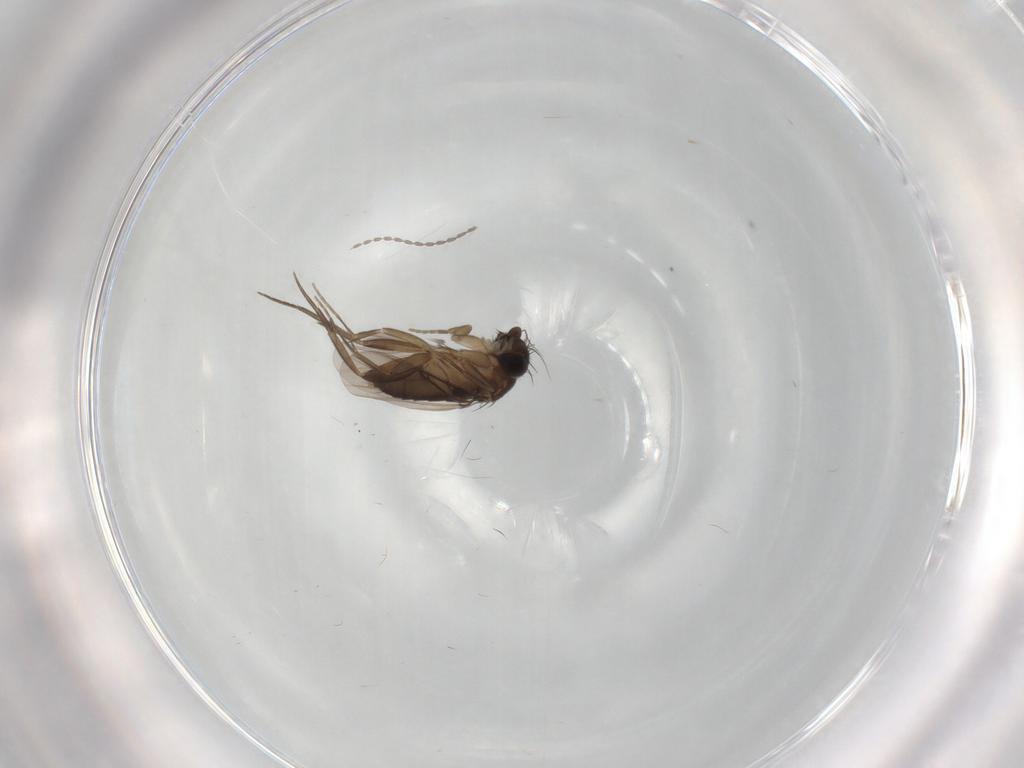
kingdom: Animalia
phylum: Arthropoda
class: Insecta
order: Diptera
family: Phoridae
